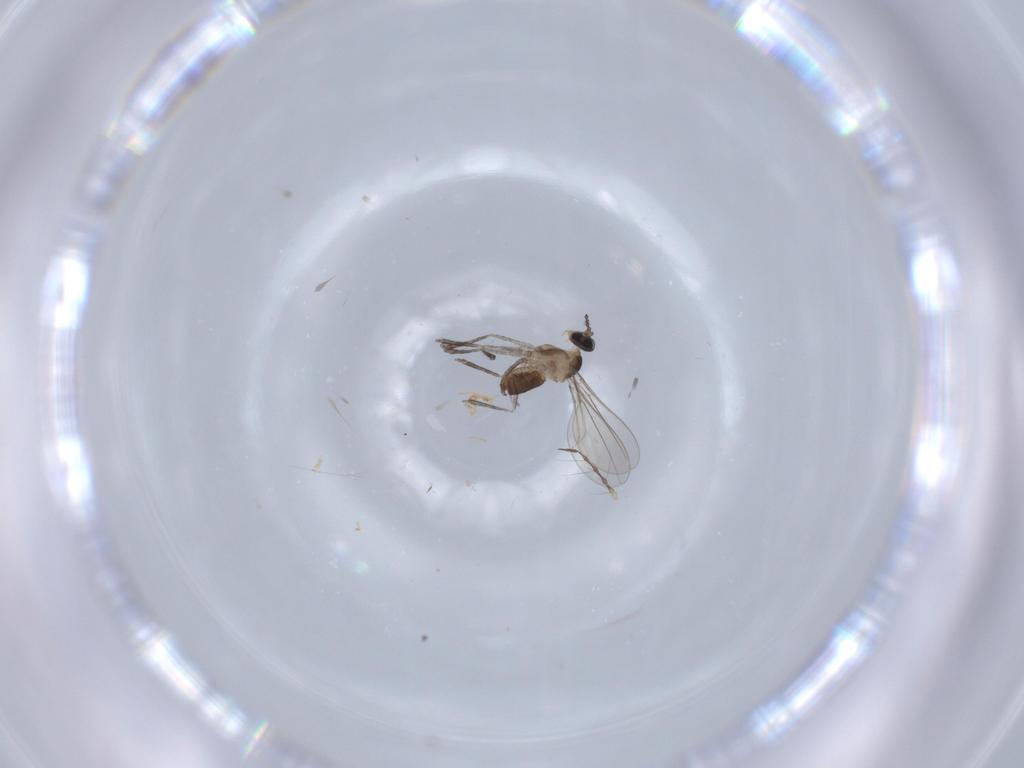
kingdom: Animalia
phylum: Arthropoda
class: Insecta
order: Diptera
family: Cecidomyiidae
